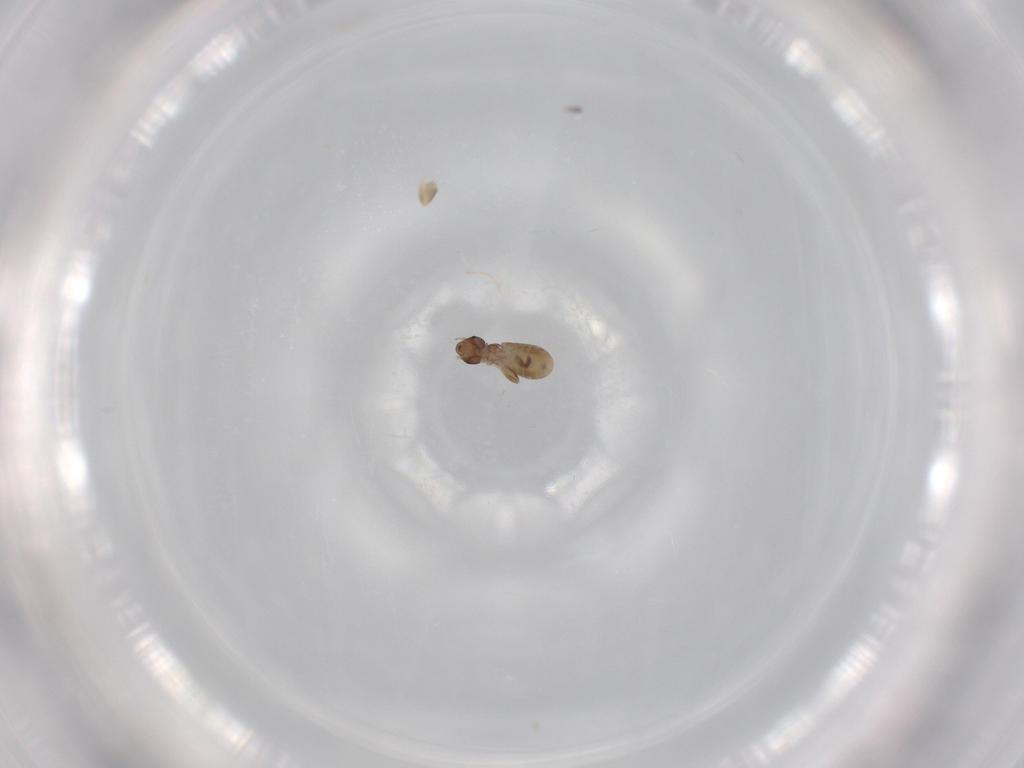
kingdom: Animalia
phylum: Arthropoda
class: Insecta
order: Psocodea
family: Liposcelididae
